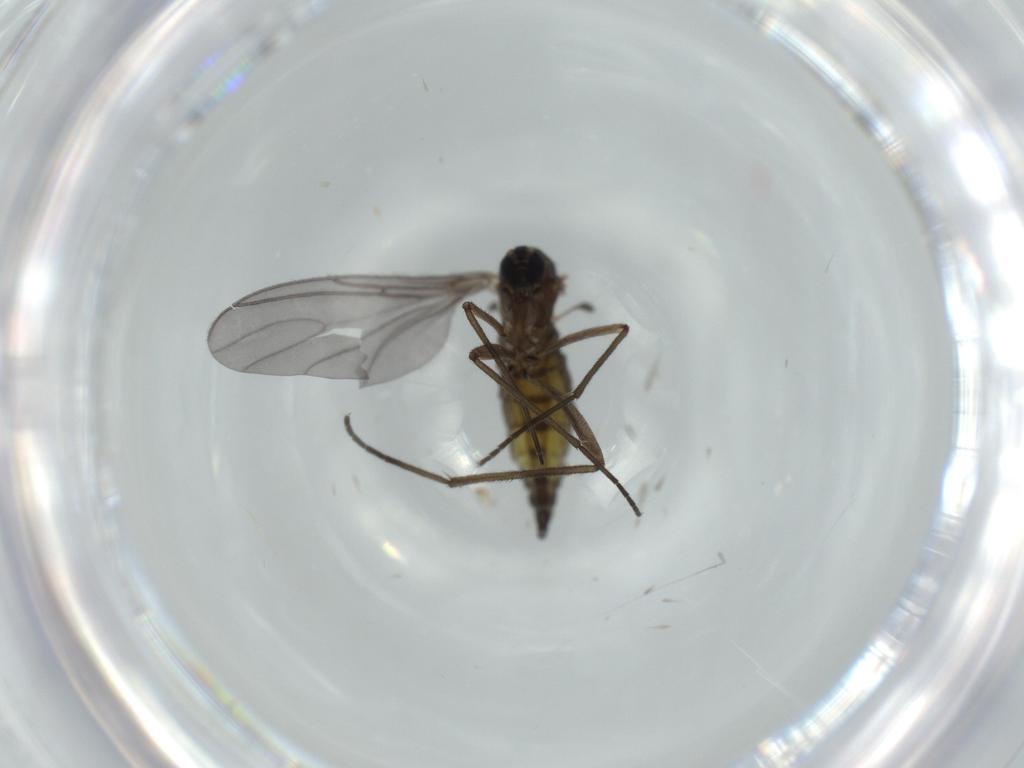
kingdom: Animalia
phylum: Arthropoda
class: Insecta
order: Diptera
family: Sciaridae
